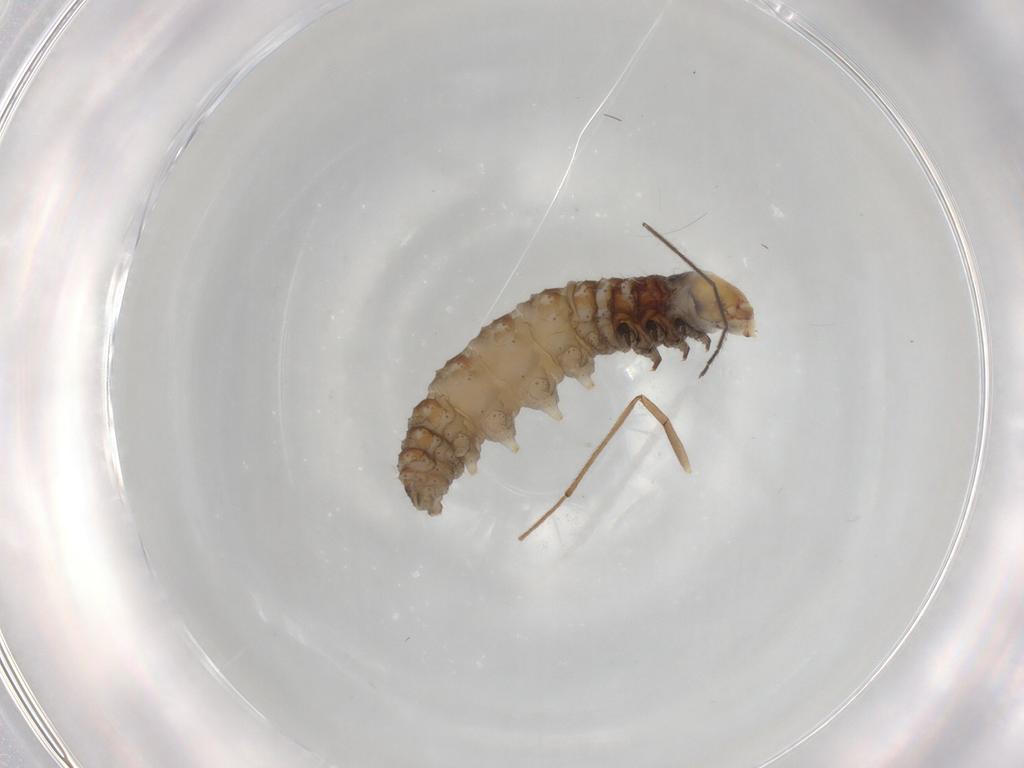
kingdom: Animalia
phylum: Arthropoda
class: Insecta
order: Lepidoptera
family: Gelechiidae
